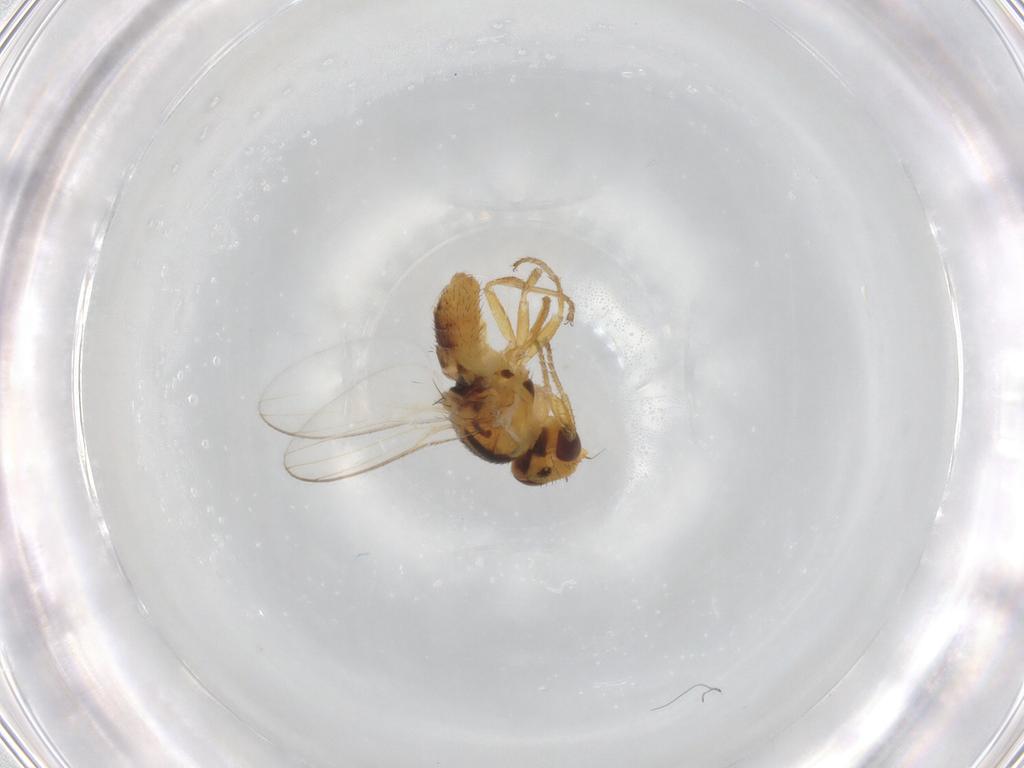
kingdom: Animalia
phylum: Arthropoda
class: Insecta
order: Diptera
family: Chloropidae
